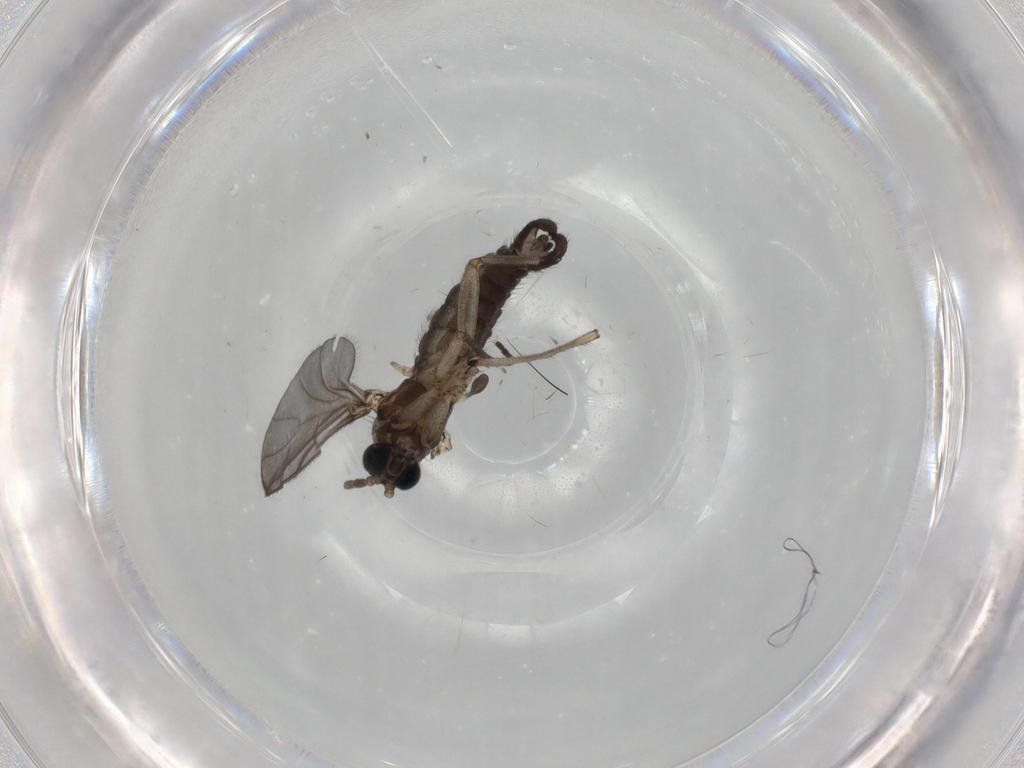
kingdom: Animalia
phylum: Arthropoda
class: Insecta
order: Diptera
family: Sciaridae
